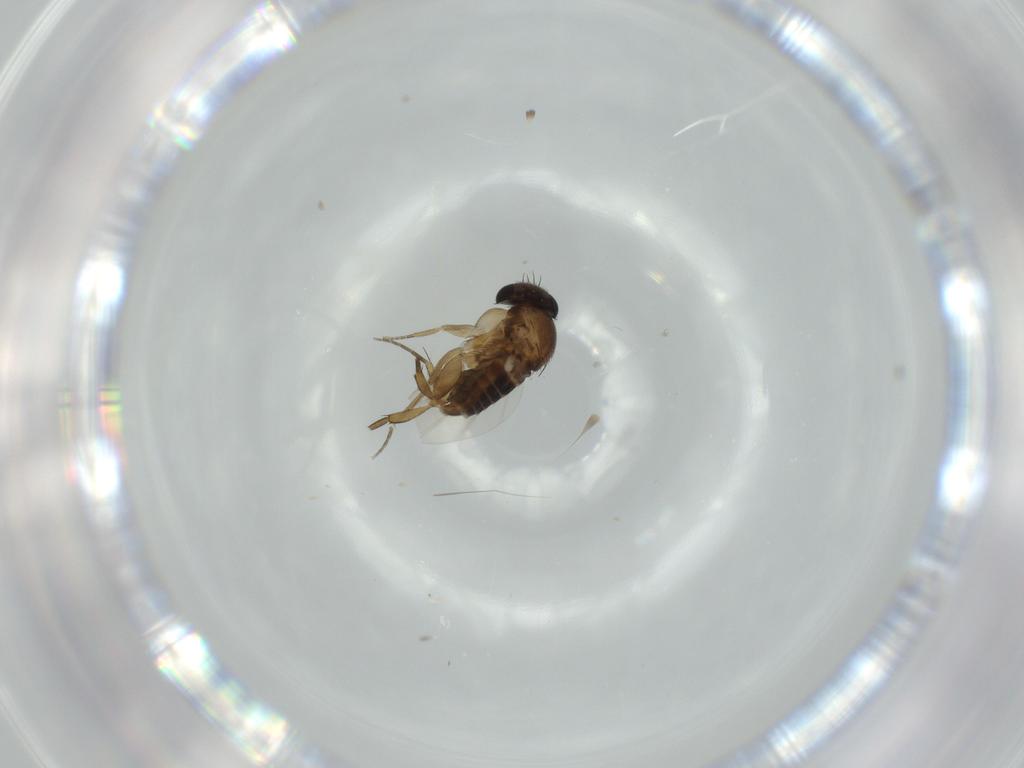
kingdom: Animalia
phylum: Arthropoda
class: Insecta
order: Diptera
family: Phoridae
